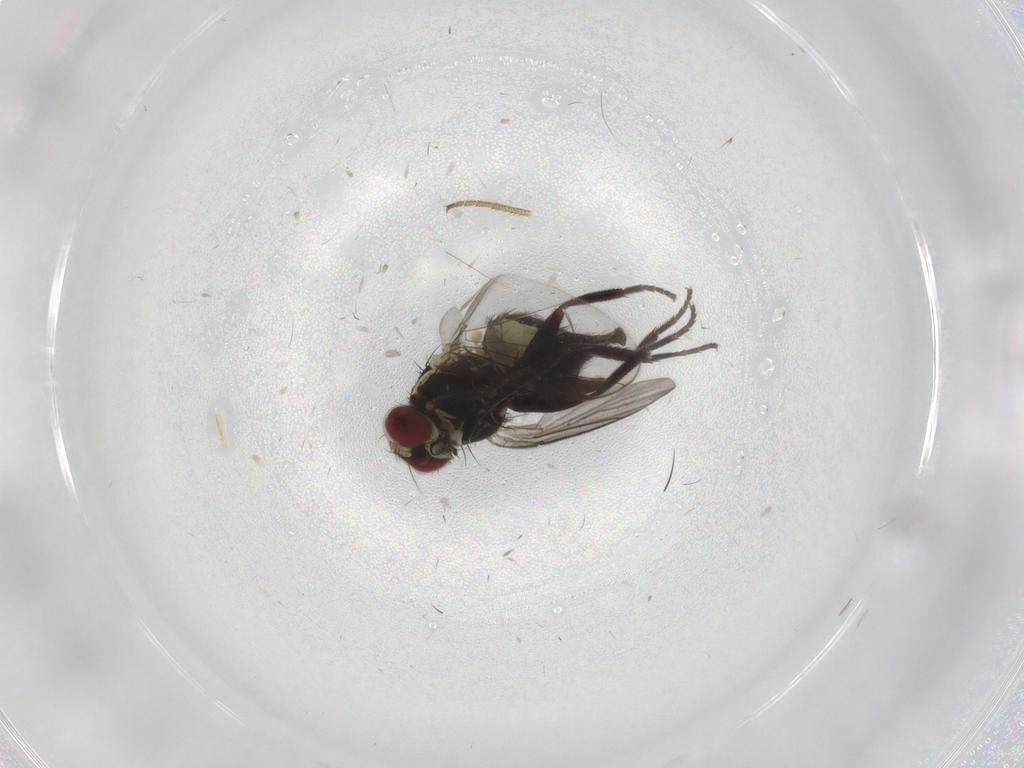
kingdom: Animalia
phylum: Arthropoda
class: Insecta
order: Diptera
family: Agromyzidae
